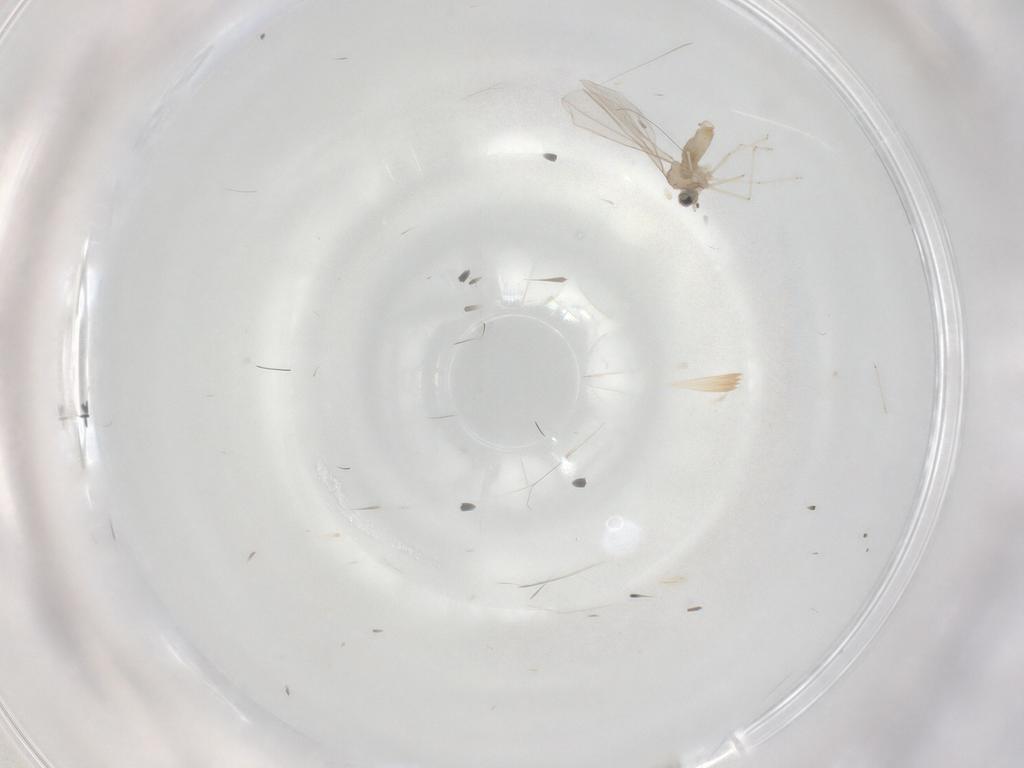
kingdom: Animalia
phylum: Arthropoda
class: Insecta
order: Diptera
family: Cecidomyiidae
